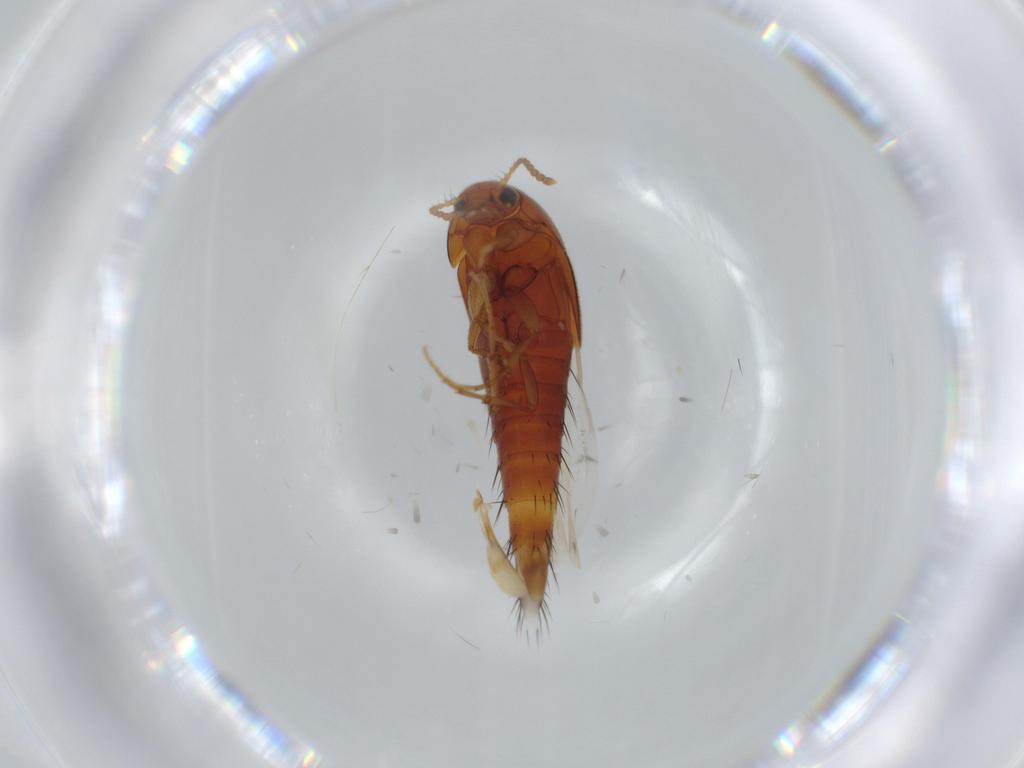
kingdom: Animalia
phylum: Arthropoda
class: Insecta
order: Coleoptera
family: Staphylinidae
